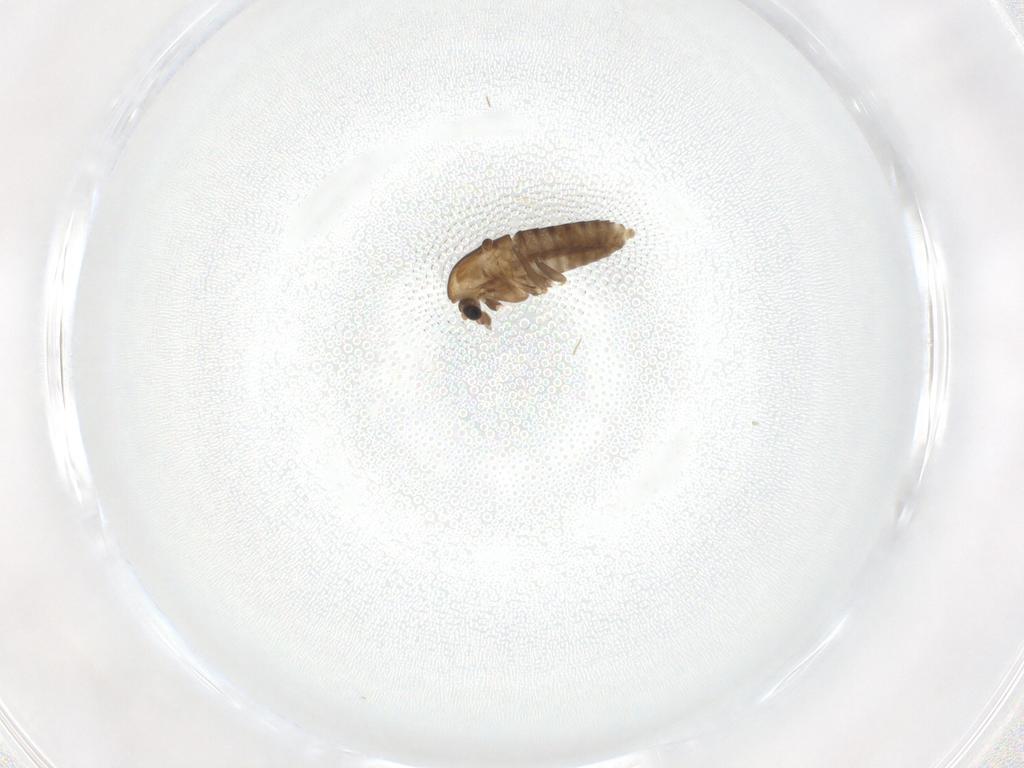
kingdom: Animalia
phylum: Arthropoda
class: Insecta
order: Diptera
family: Chironomidae
